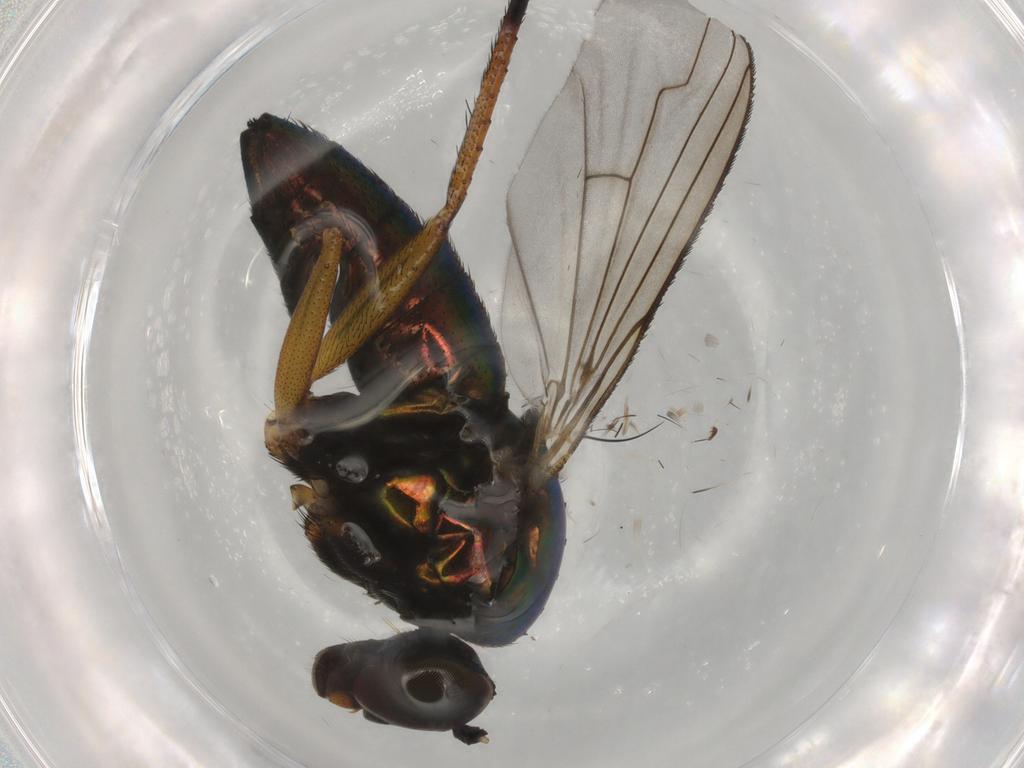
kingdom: Animalia
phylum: Arthropoda
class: Insecta
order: Diptera
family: Dolichopodidae
